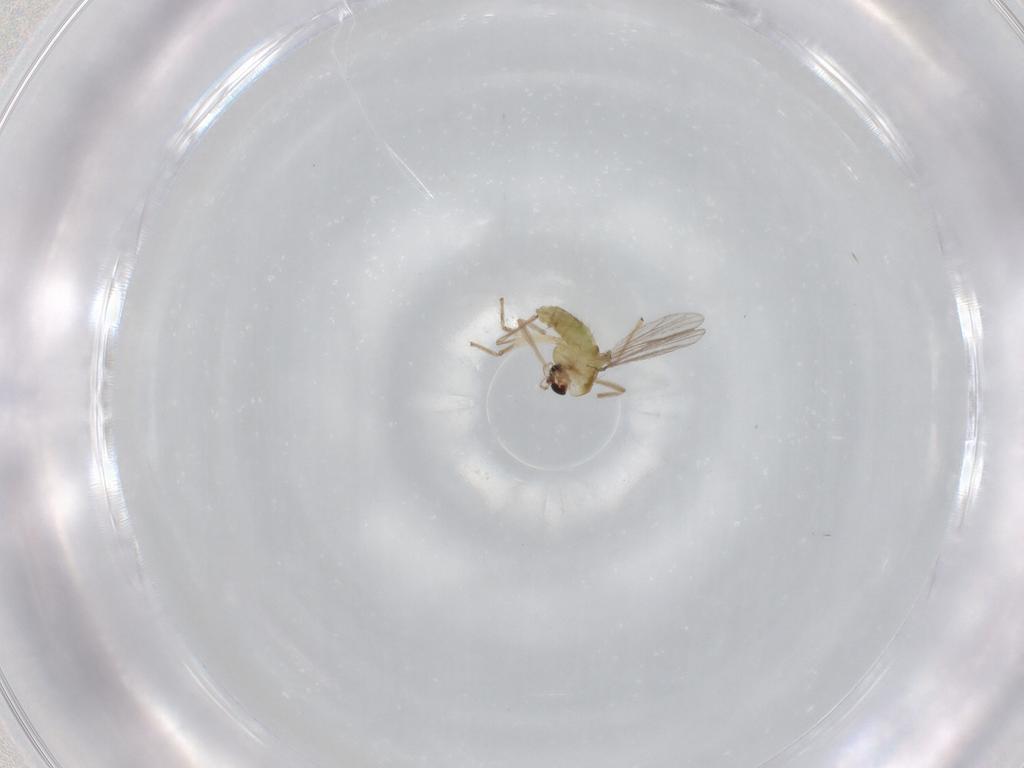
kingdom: Animalia
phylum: Arthropoda
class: Insecta
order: Diptera
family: Chironomidae
